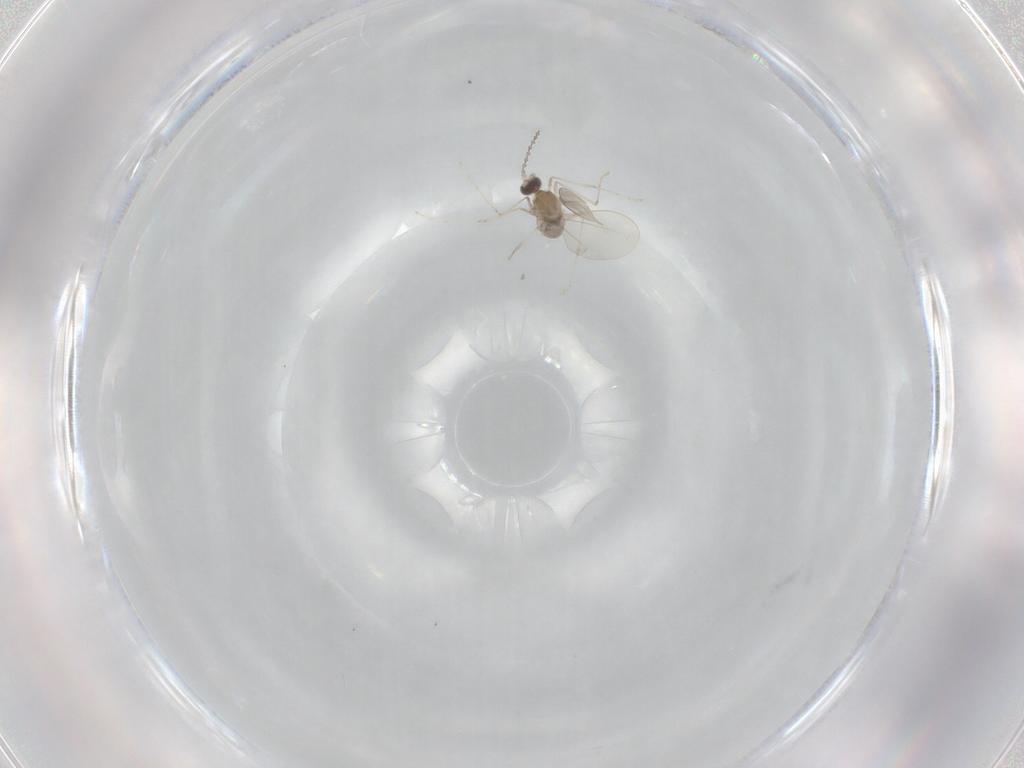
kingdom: Animalia
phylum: Arthropoda
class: Insecta
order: Diptera
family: Cecidomyiidae
